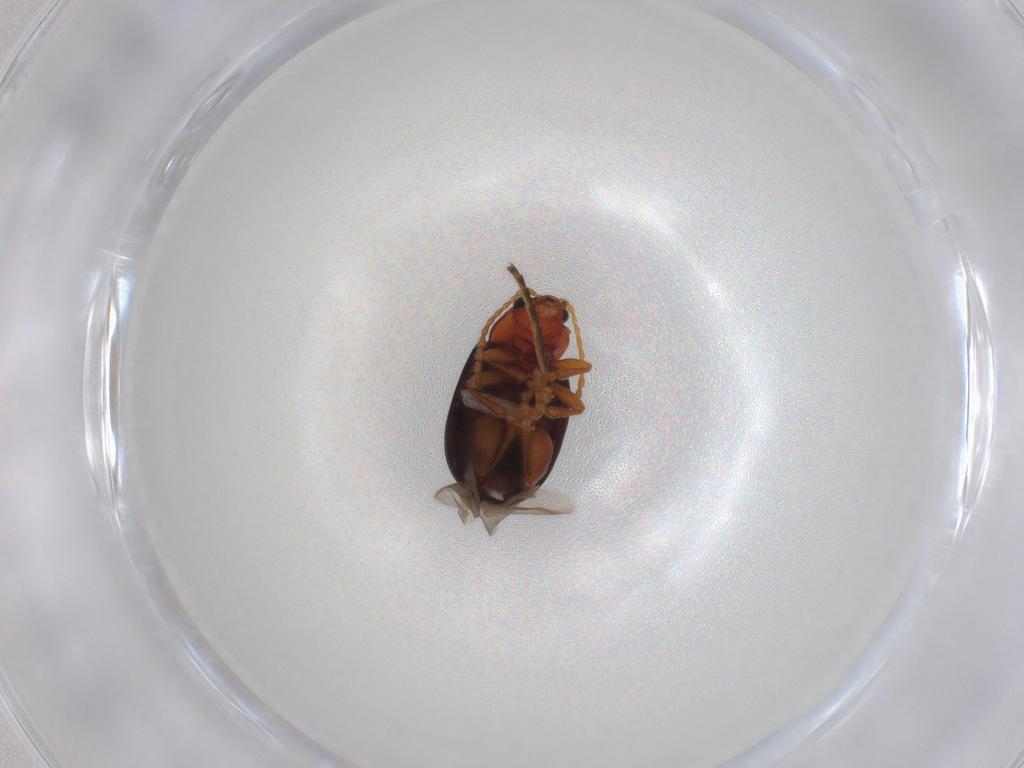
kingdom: Animalia
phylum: Arthropoda
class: Insecta
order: Coleoptera
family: Chrysomelidae
